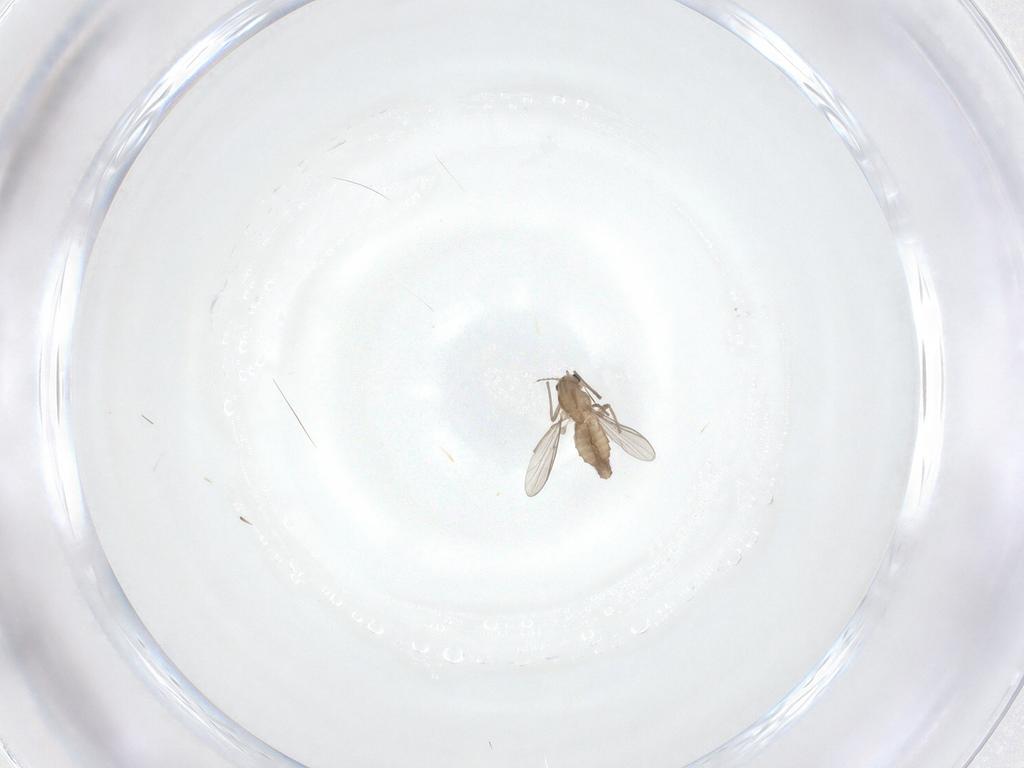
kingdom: Animalia
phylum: Arthropoda
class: Insecta
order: Diptera
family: Chironomidae
